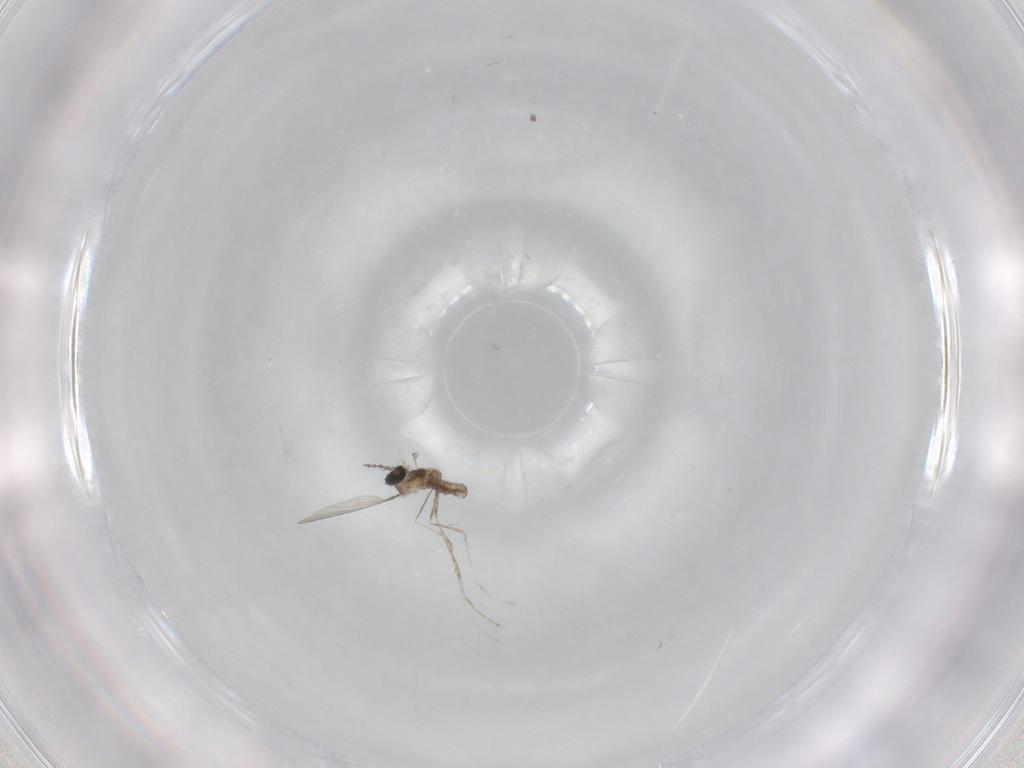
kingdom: Animalia
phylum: Arthropoda
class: Insecta
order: Diptera
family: Cecidomyiidae
